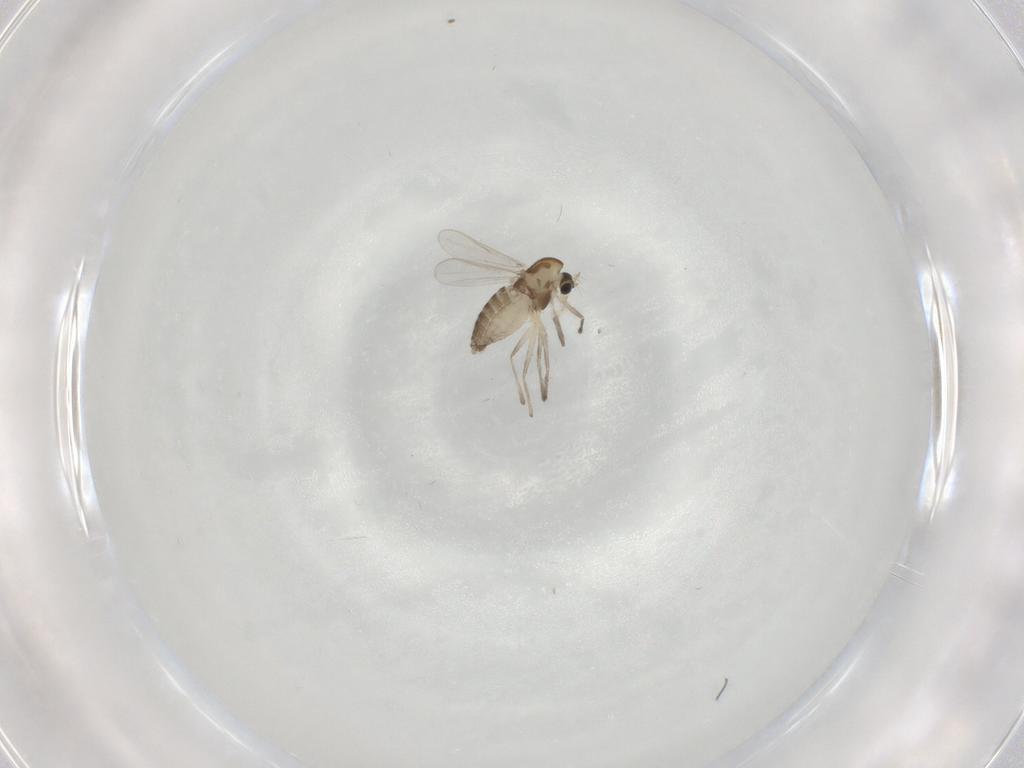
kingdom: Animalia
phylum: Arthropoda
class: Insecta
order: Diptera
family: Chironomidae
